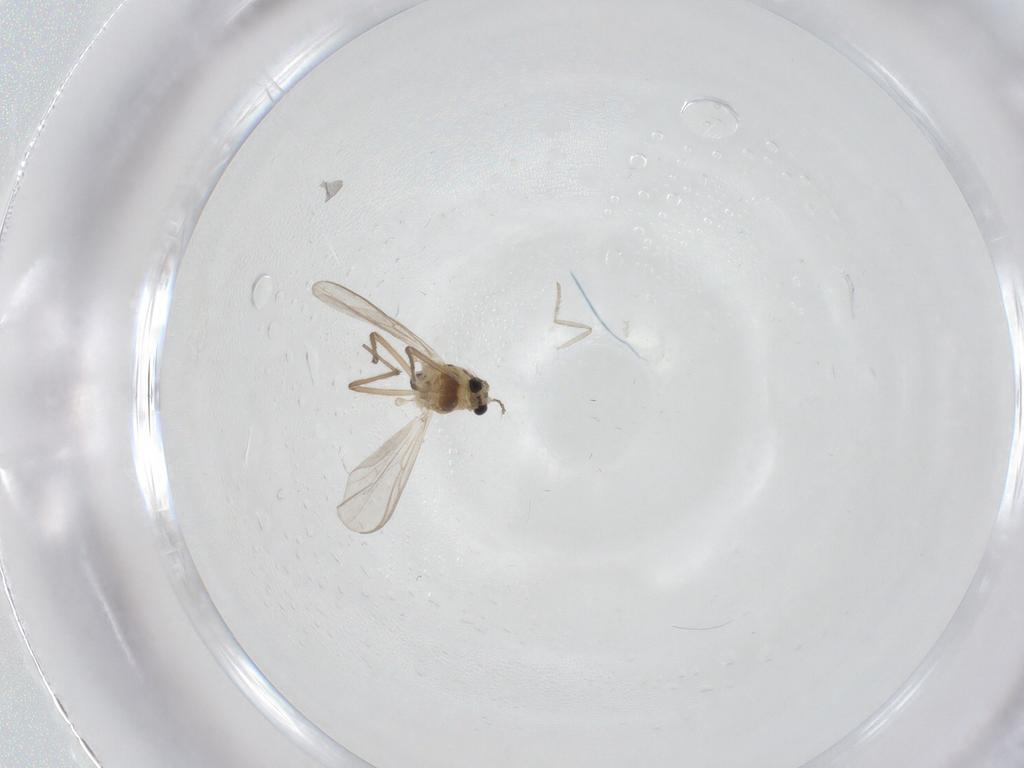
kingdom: Animalia
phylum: Arthropoda
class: Insecta
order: Diptera
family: Chironomidae
